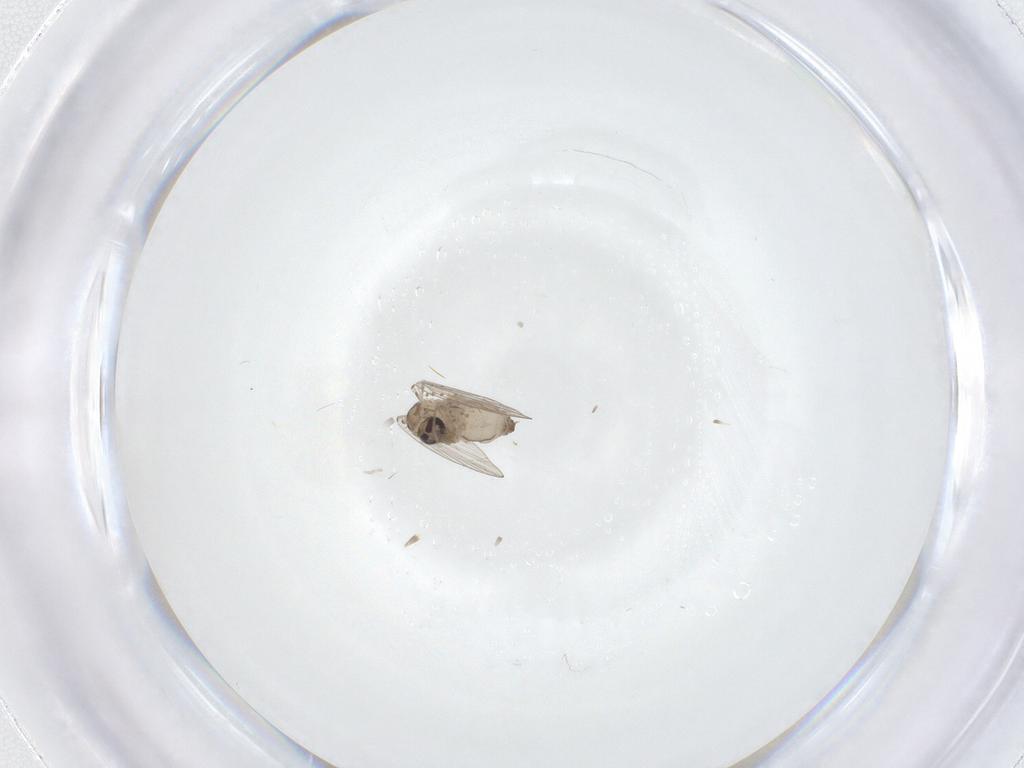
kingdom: Animalia
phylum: Arthropoda
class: Insecta
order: Diptera
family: Psychodidae
